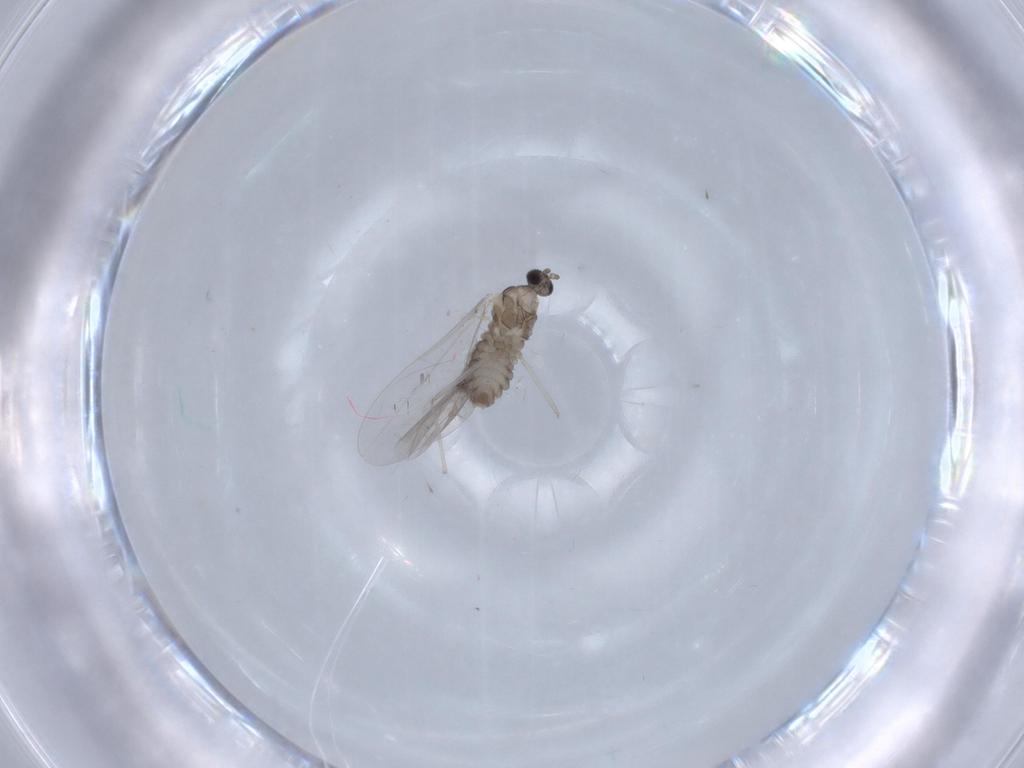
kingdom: Animalia
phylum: Arthropoda
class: Insecta
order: Diptera
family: Cecidomyiidae
